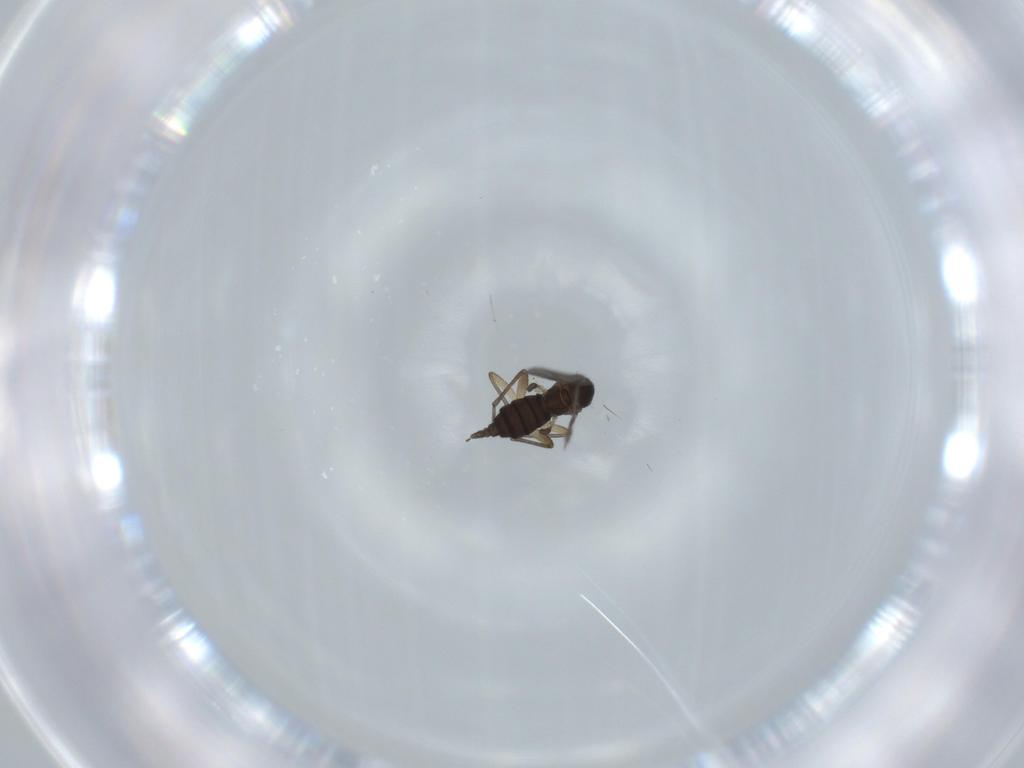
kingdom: Animalia
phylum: Arthropoda
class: Insecta
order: Diptera
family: Sciaridae
